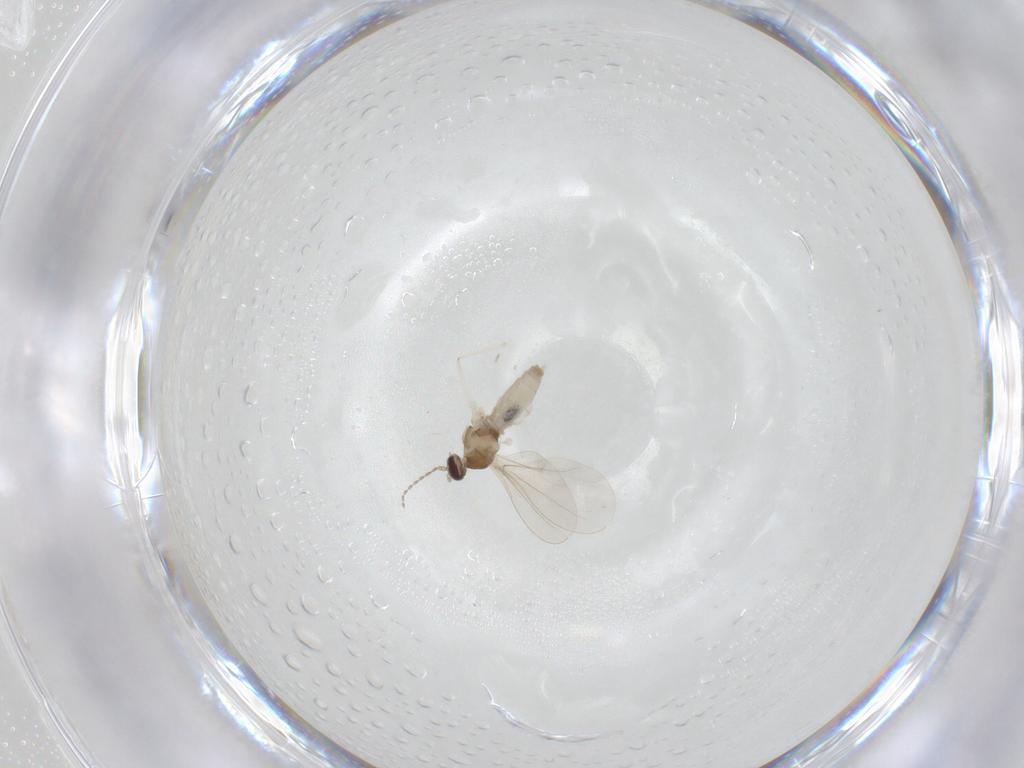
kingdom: Animalia
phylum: Arthropoda
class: Insecta
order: Diptera
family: Cecidomyiidae
